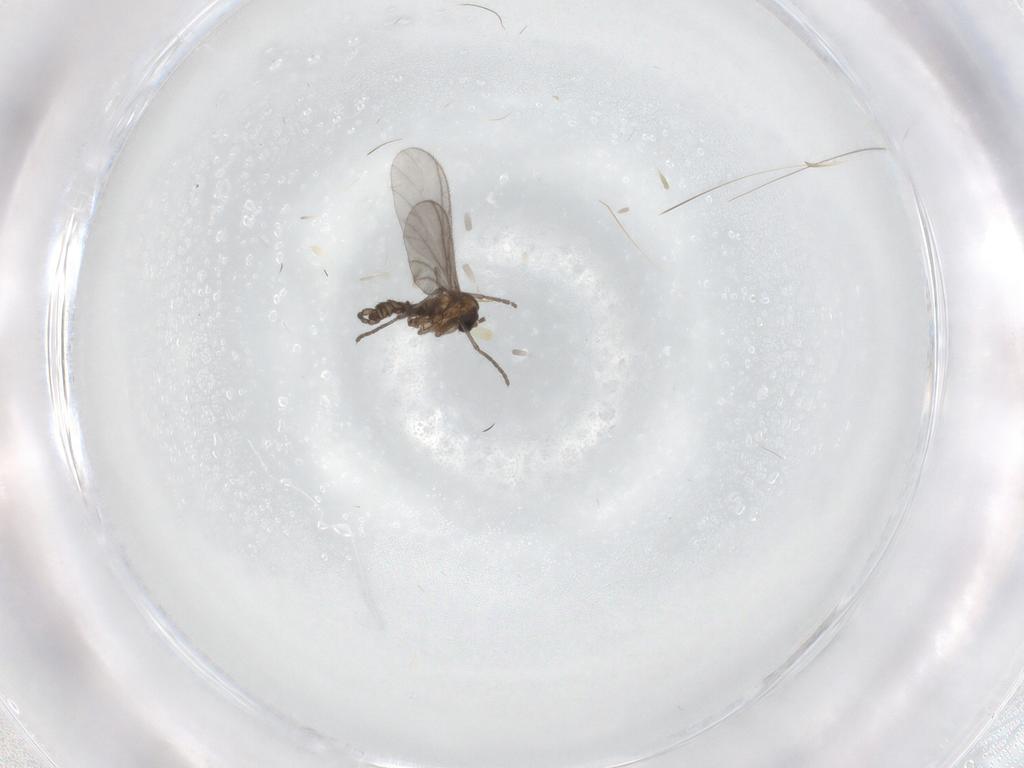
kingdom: Animalia
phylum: Arthropoda
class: Insecta
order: Diptera
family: Sciaridae
